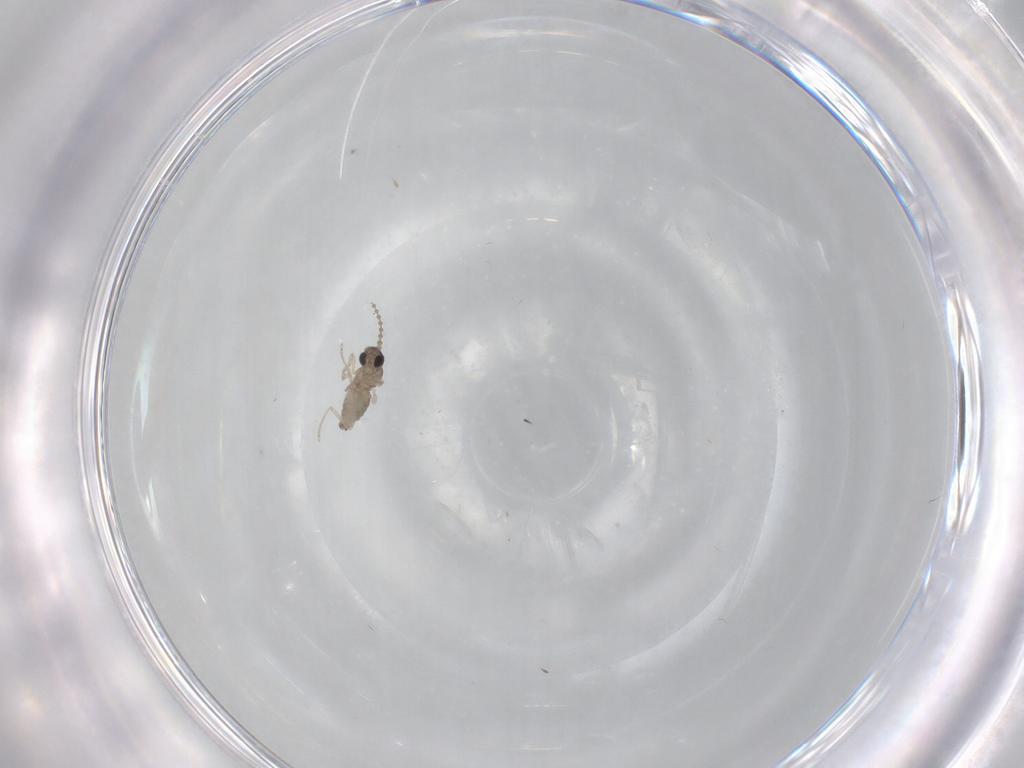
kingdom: Animalia
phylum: Arthropoda
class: Insecta
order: Diptera
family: Cecidomyiidae
